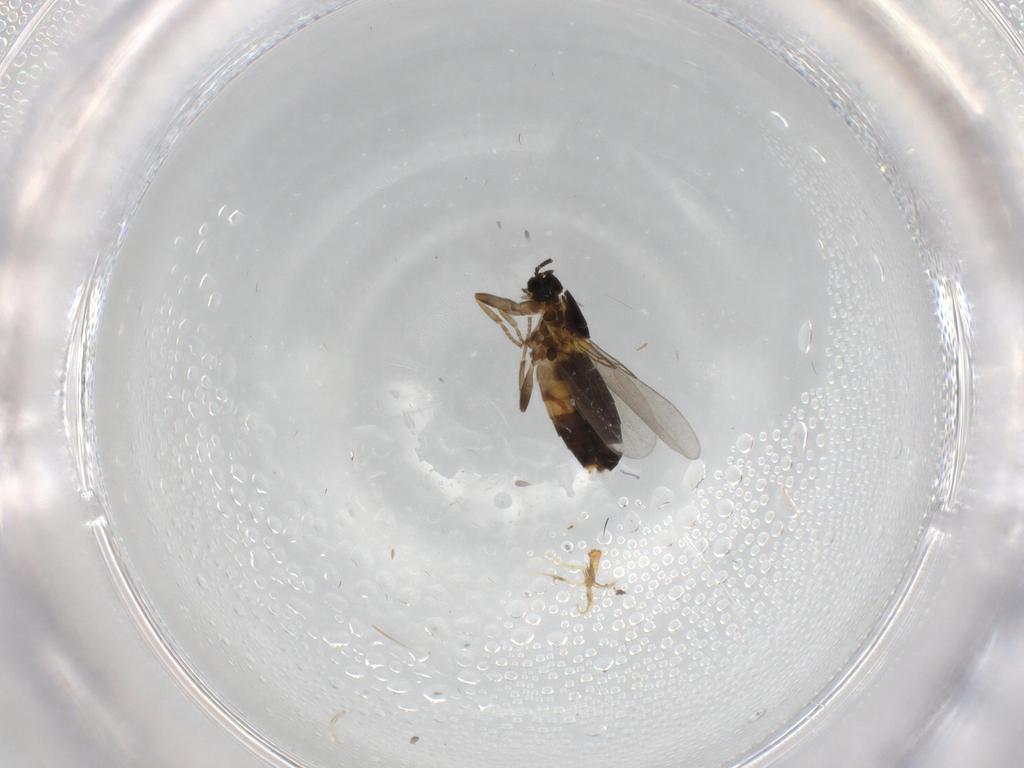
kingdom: Animalia
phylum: Arthropoda
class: Insecta
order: Diptera
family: Scatopsidae
